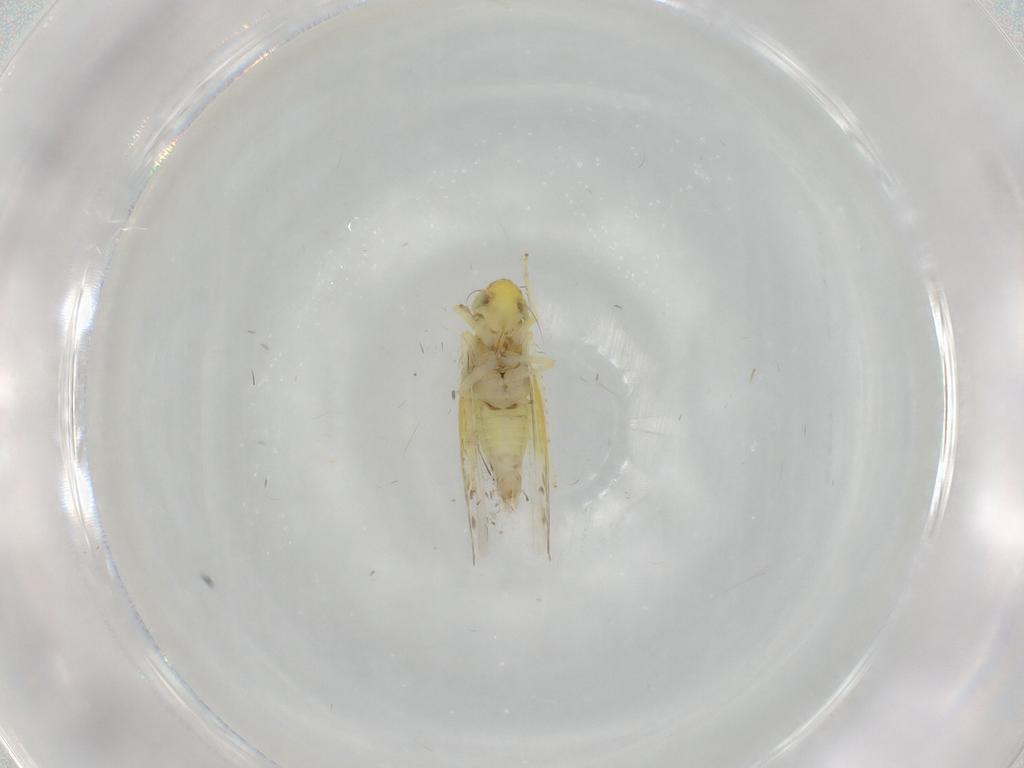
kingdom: Animalia
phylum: Arthropoda
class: Insecta
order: Hemiptera
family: Cicadellidae
